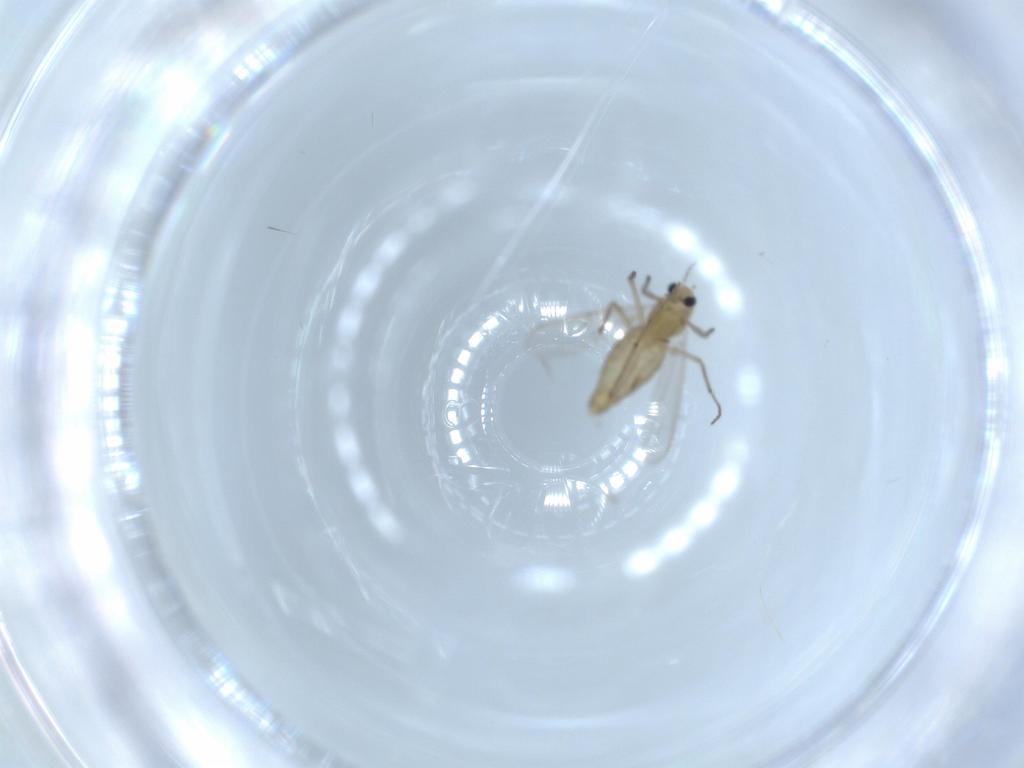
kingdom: Animalia
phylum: Arthropoda
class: Insecta
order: Diptera
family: Chironomidae
